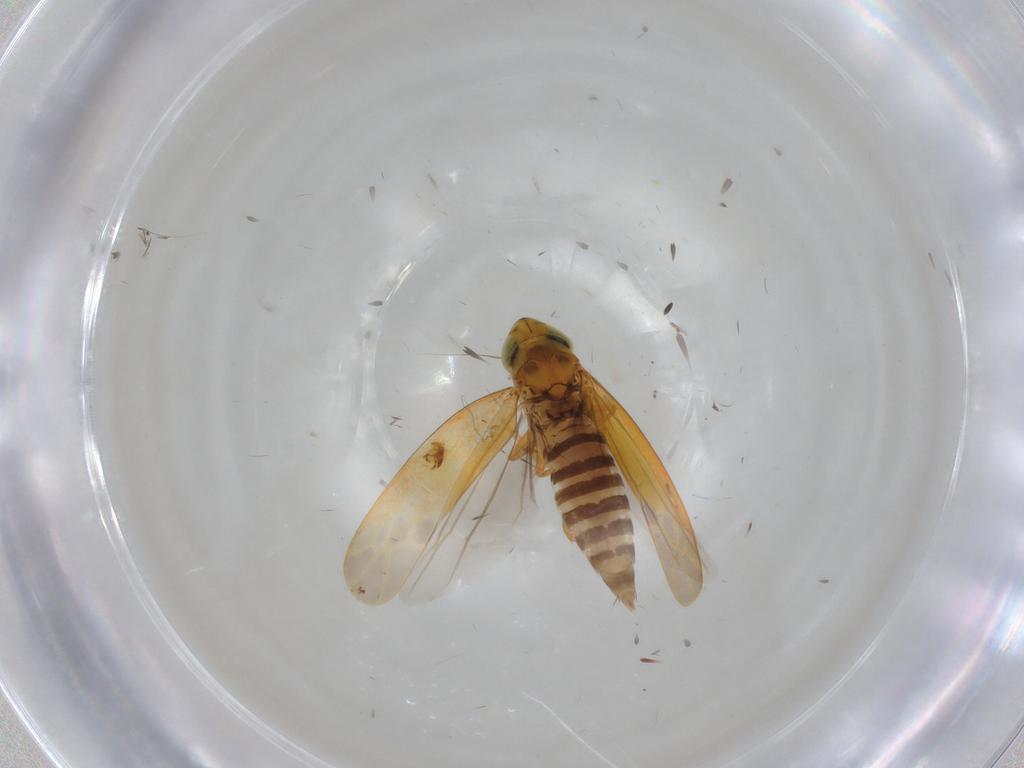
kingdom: Animalia
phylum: Arthropoda
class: Insecta
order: Hemiptera
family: Cicadellidae
